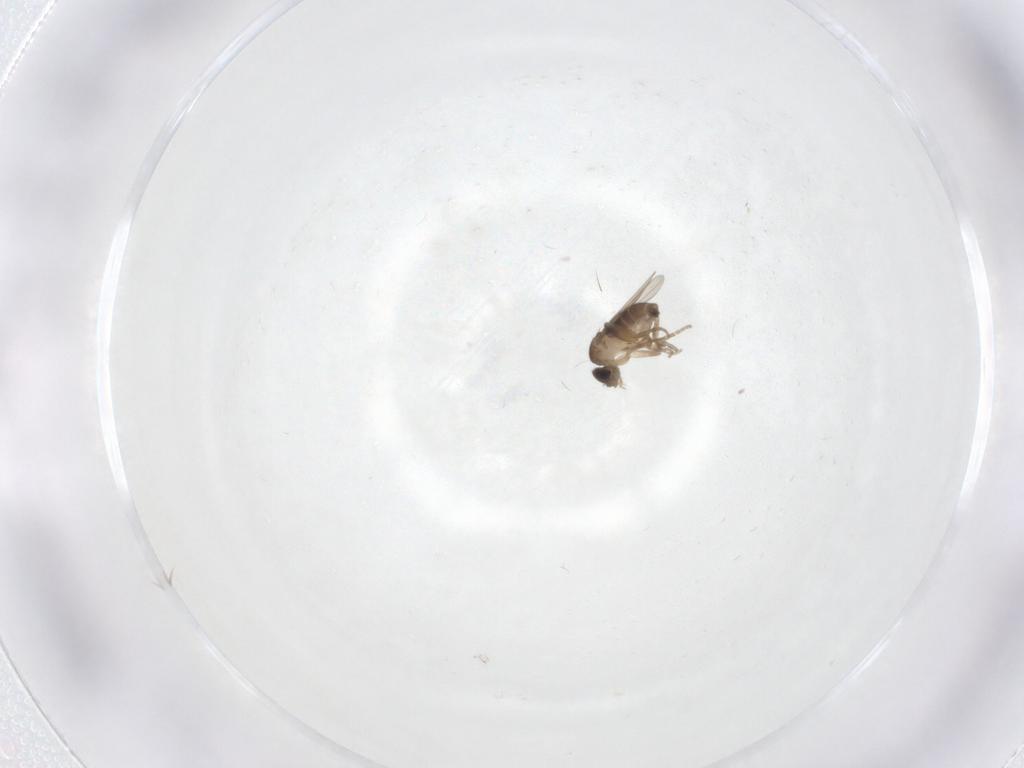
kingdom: Animalia
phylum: Arthropoda
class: Insecta
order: Diptera
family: Phoridae
